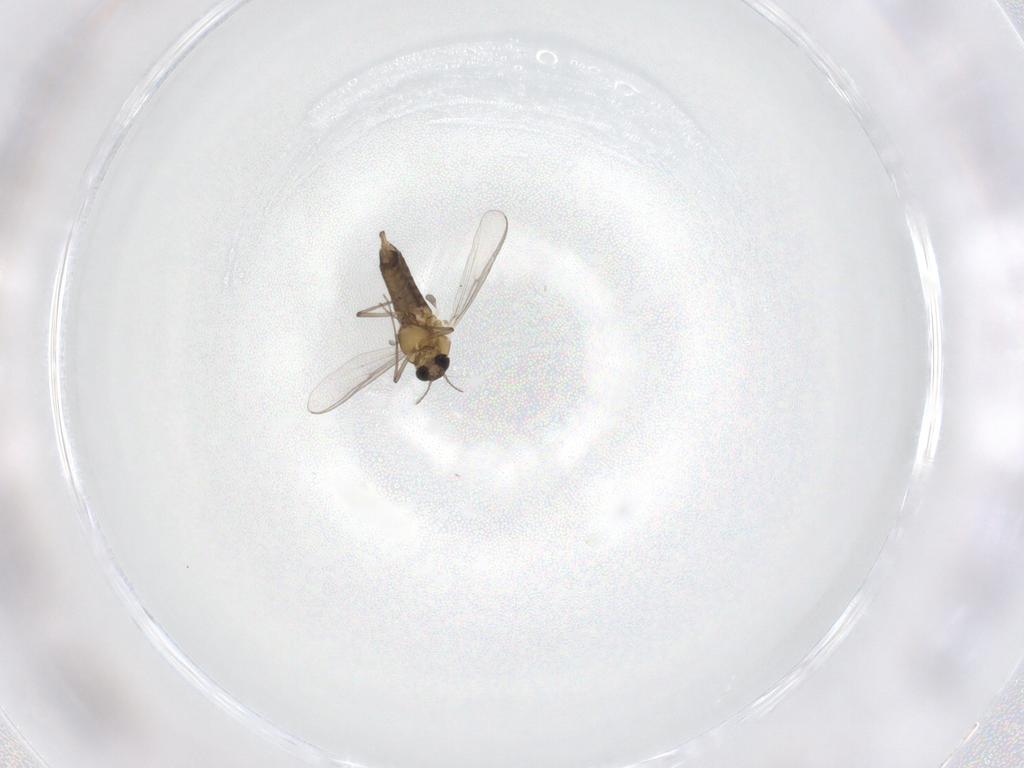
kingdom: Animalia
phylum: Arthropoda
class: Insecta
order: Diptera
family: Chironomidae
